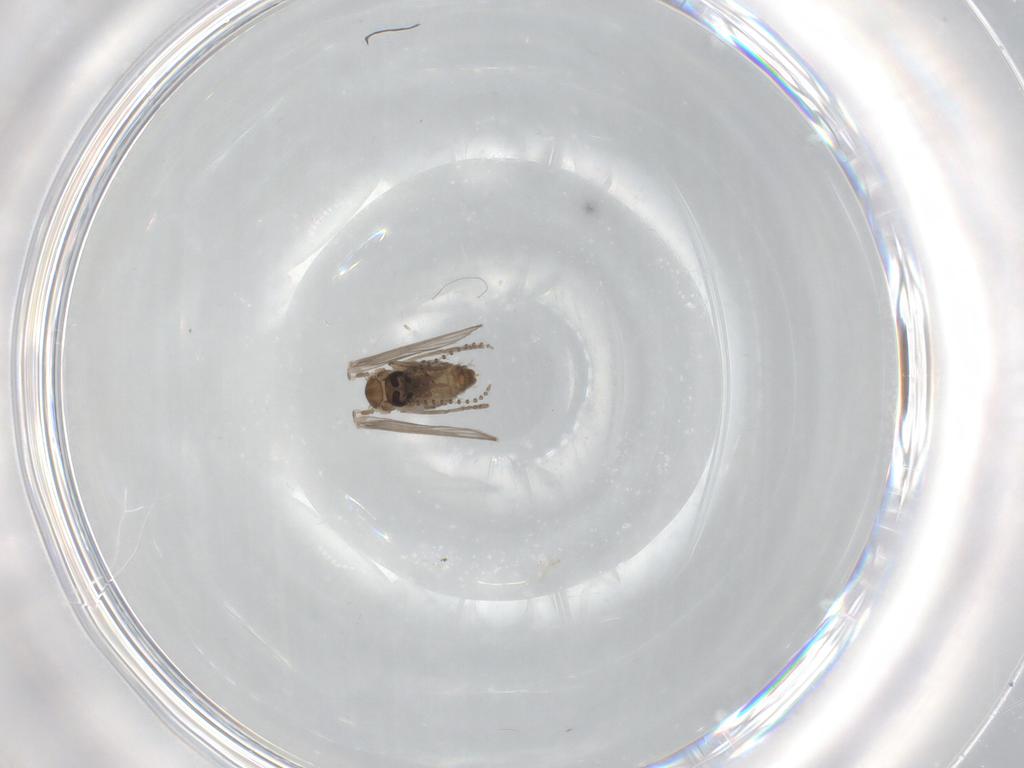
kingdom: Animalia
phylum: Arthropoda
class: Insecta
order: Diptera
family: Psychodidae
